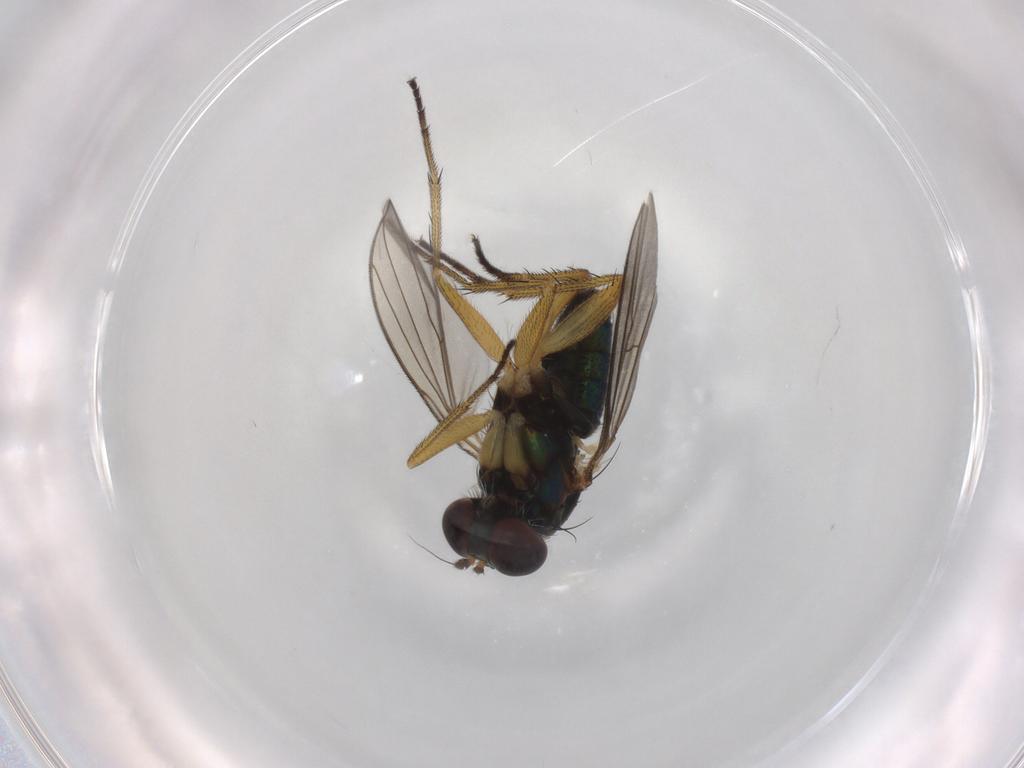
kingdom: Animalia
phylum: Arthropoda
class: Insecta
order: Diptera
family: Dolichopodidae
